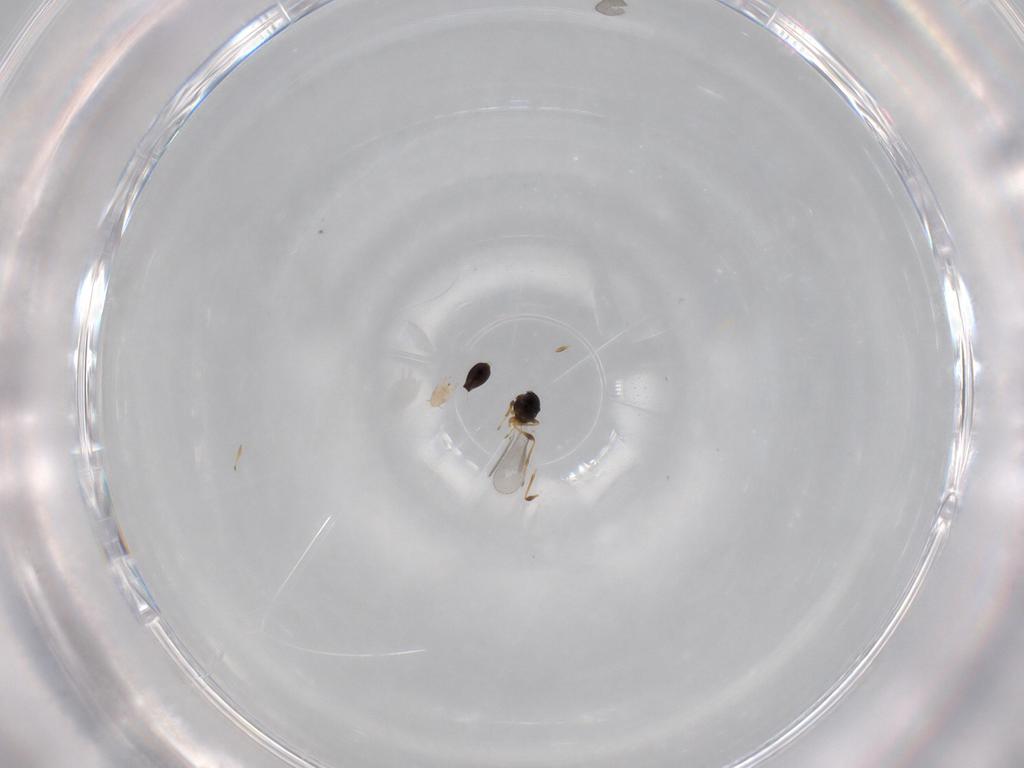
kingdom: Animalia
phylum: Arthropoda
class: Insecta
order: Hymenoptera
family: Platygastridae
